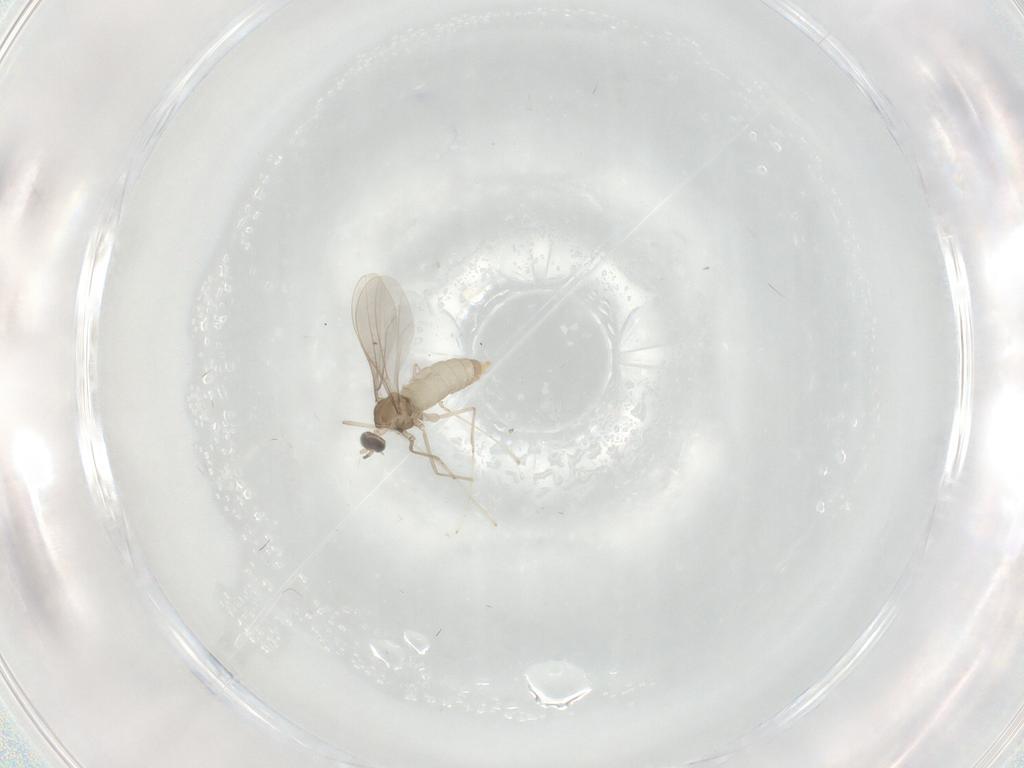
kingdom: Animalia
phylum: Arthropoda
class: Insecta
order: Diptera
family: Cecidomyiidae
